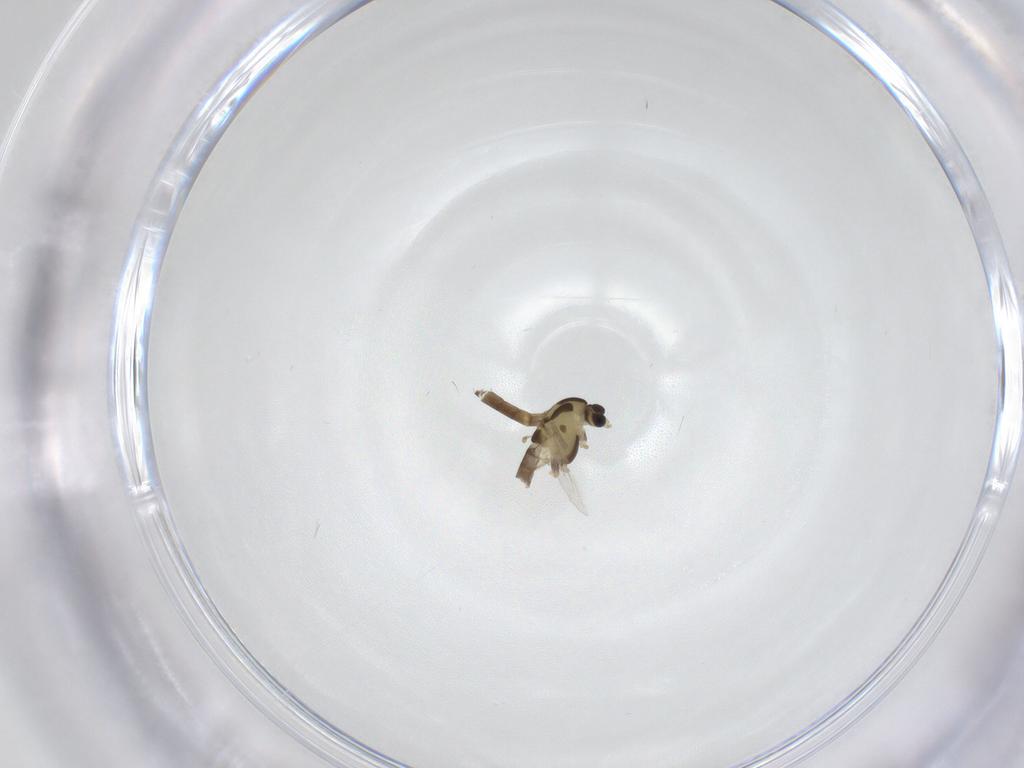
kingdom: Animalia
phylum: Arthropoda
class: Insecta
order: Diptera
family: Chironomidae
